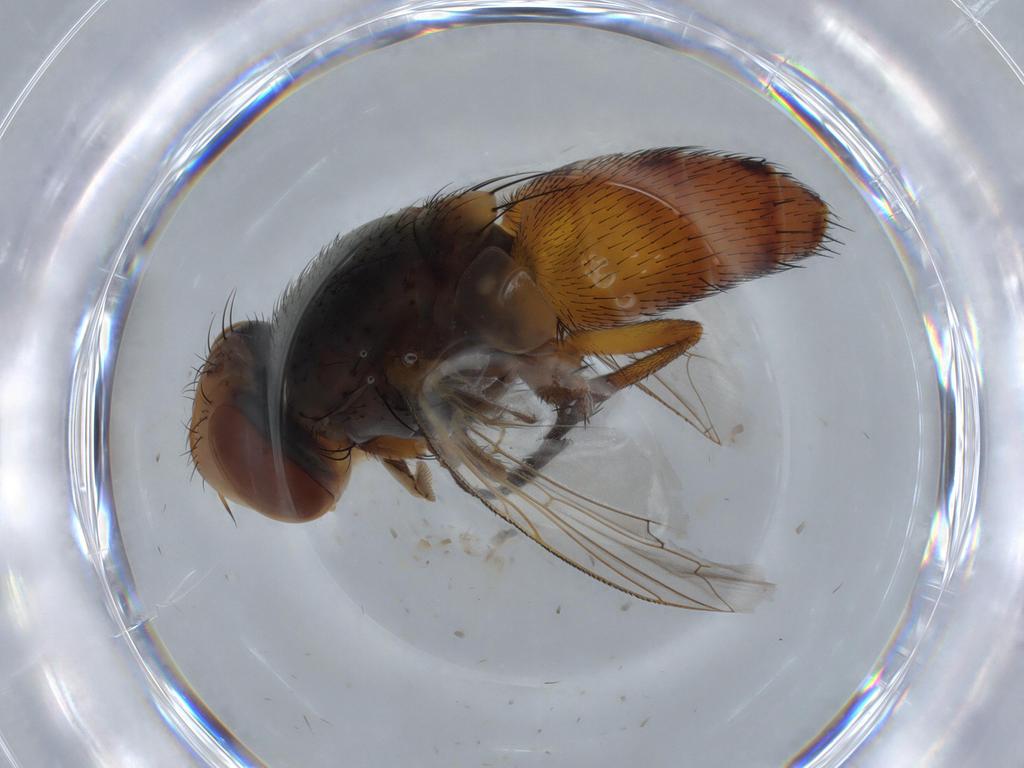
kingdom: Animalia
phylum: Arthropoda
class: Insecta
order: Diptera
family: Sarcophagidae
